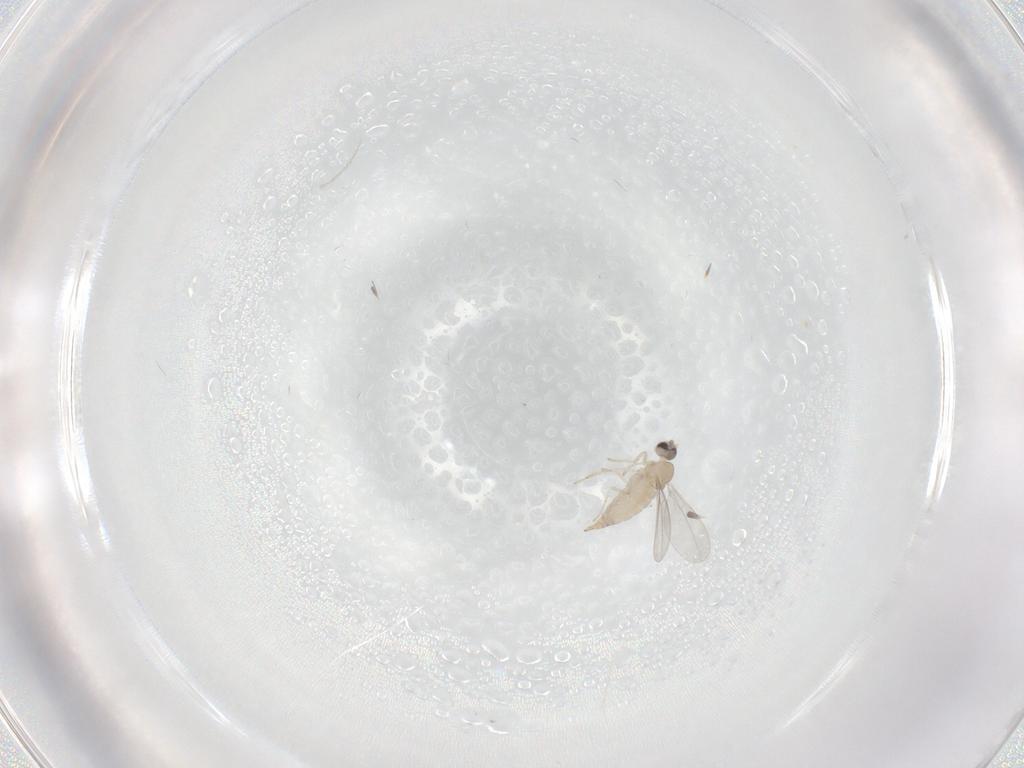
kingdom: Animalia
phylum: Arthropoda
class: Insecta
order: Diptera
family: Cecidomyiidae
